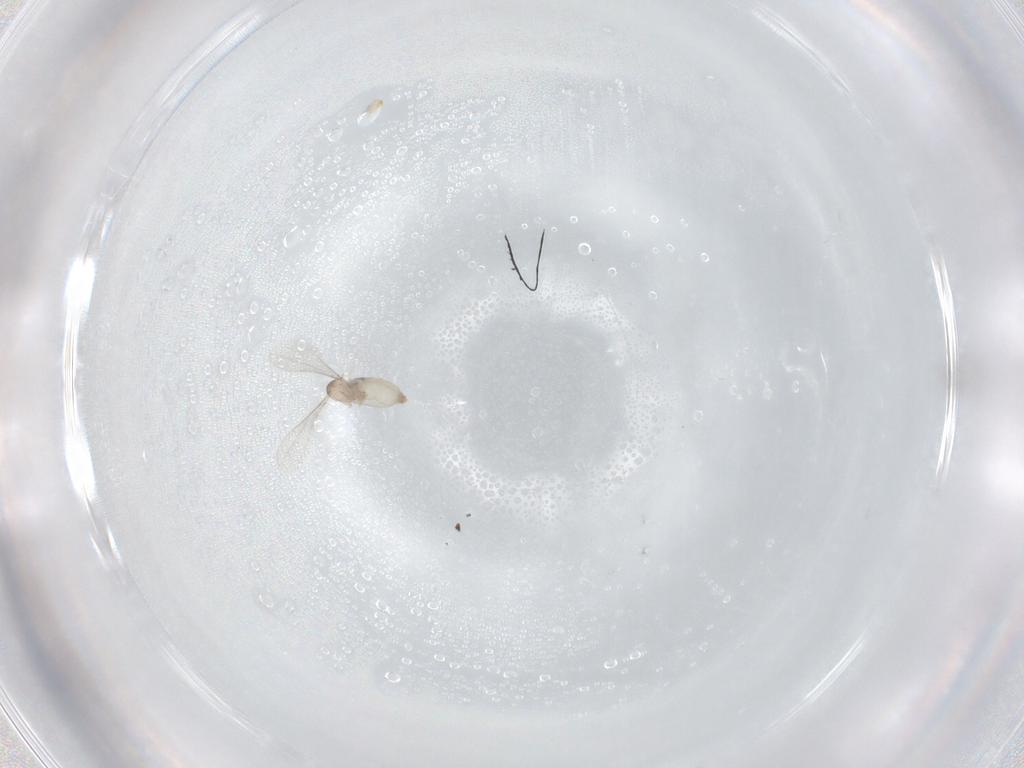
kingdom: Animalia
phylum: Arthropoda
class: Insecta
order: Diptera
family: Cecidomyiidae
